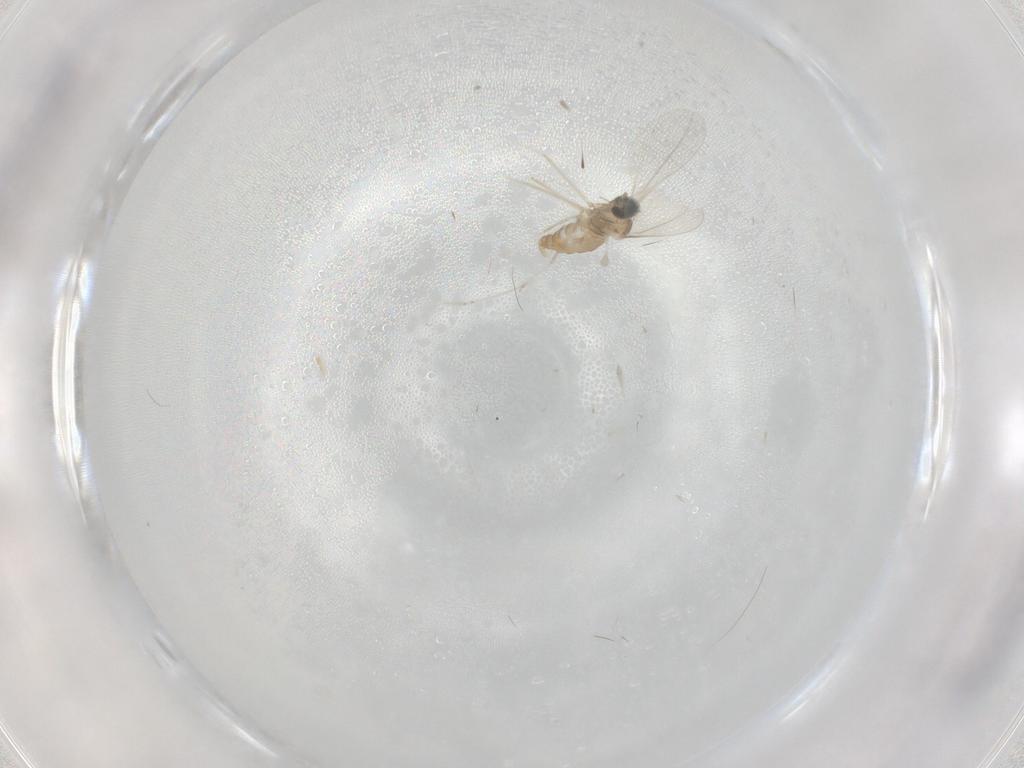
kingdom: Animalia
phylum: Arthropoda
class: Insecta
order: Diptera
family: Cecidomyiidae
